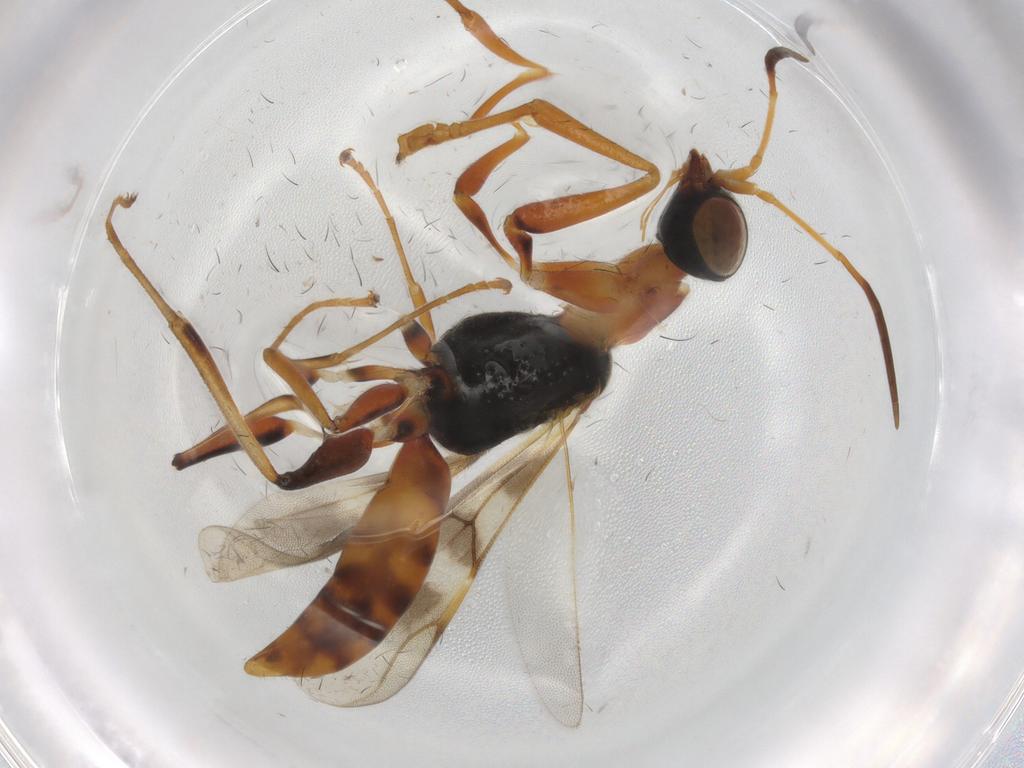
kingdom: Animalia
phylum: Arthropoda
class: Insecta
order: Hymenoptera
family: Dryinidae
